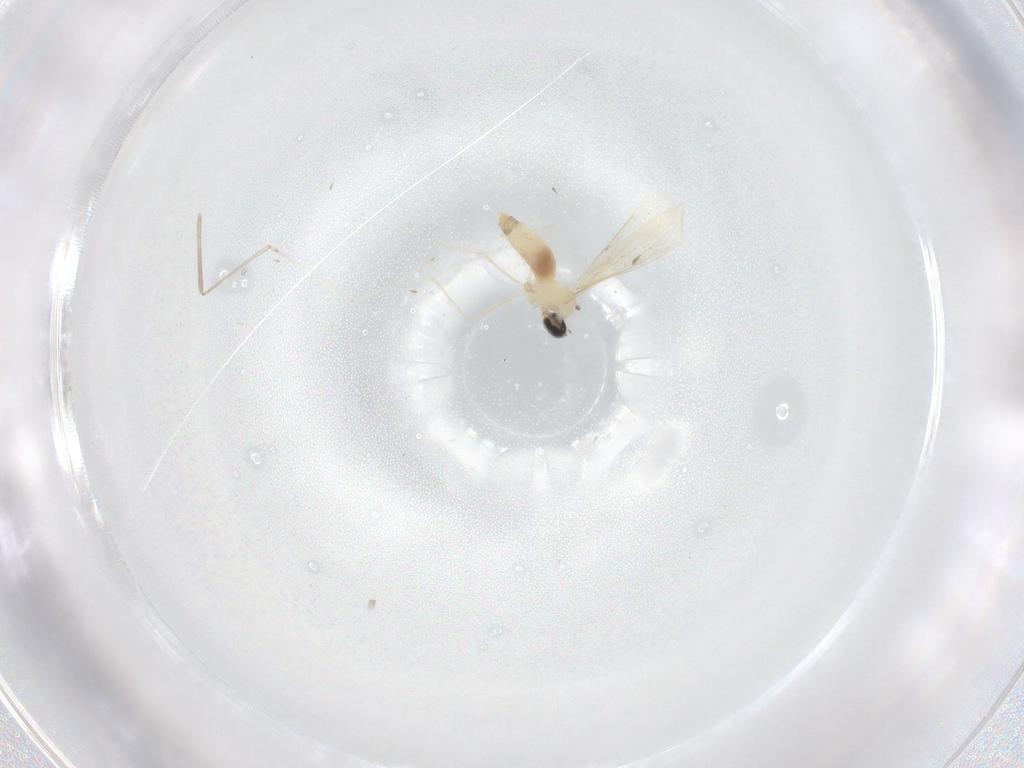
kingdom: Animalia
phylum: Arthropoda
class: Insecta
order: Diptera
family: Cecidomyiidae
